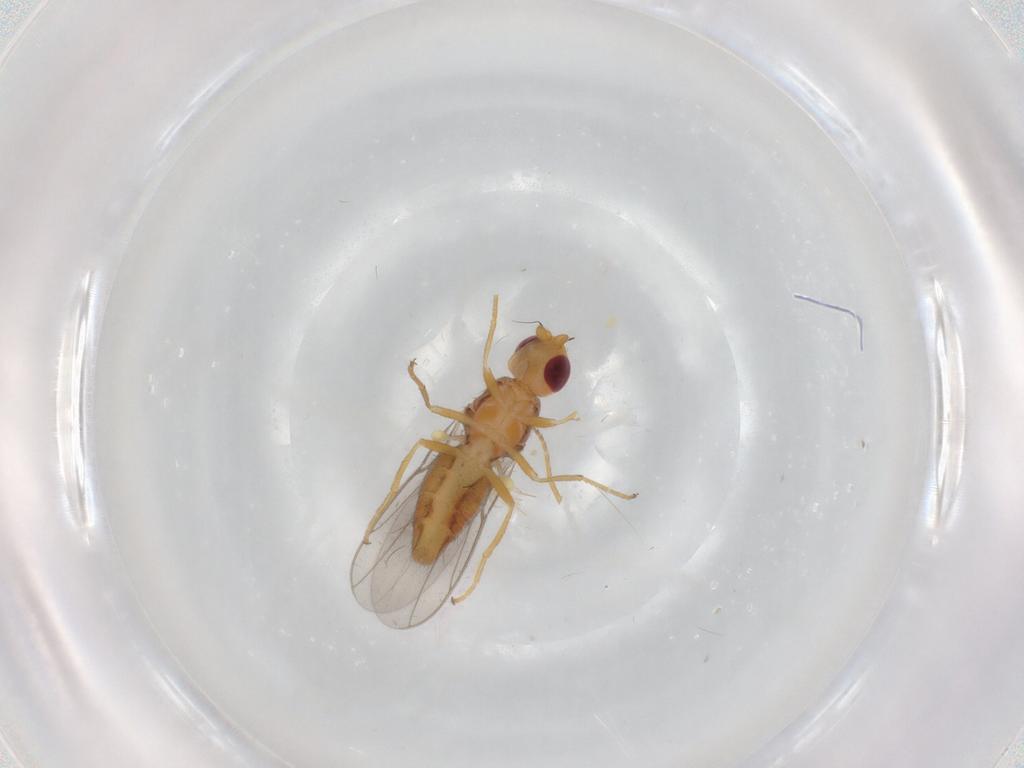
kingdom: Animalia
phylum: Arthropoda
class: Insecta
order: Diptera
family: Chloropidae
